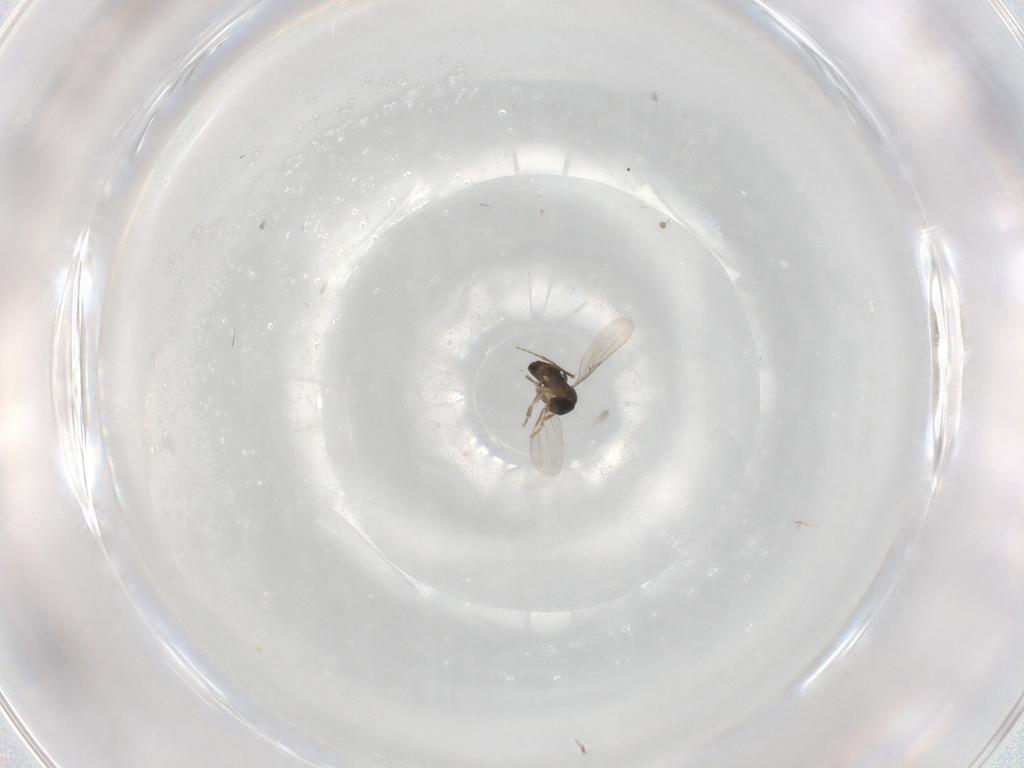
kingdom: Animalia
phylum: Arthropoda
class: Insecta
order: Diptera
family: Phoridae
